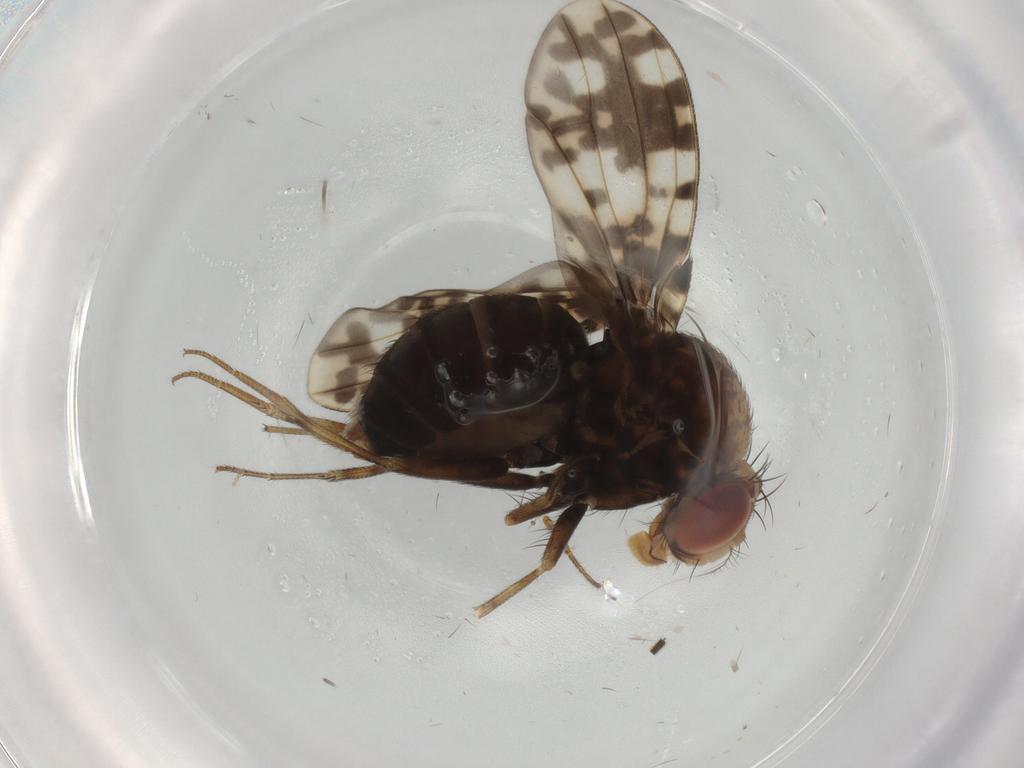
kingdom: Animalia
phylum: Arthropoda
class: Insecta
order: Diptera
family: Drosophilidae
